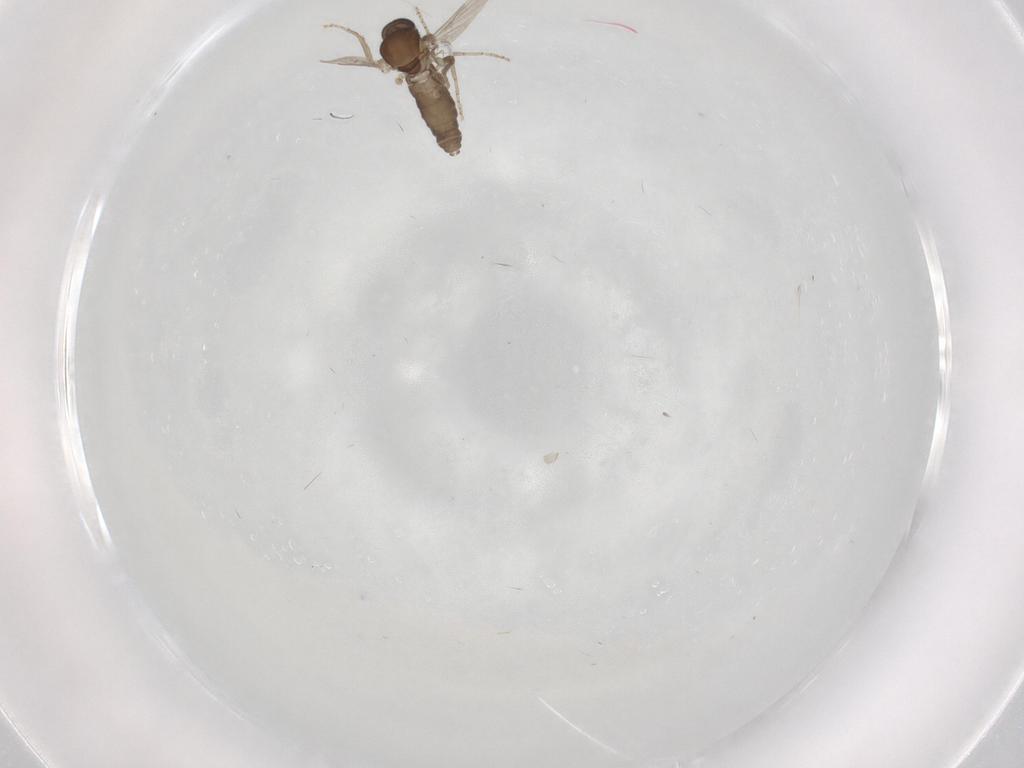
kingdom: Animalia
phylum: Arthropoda
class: Insecta
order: Diptera
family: Ceratopogonidae
